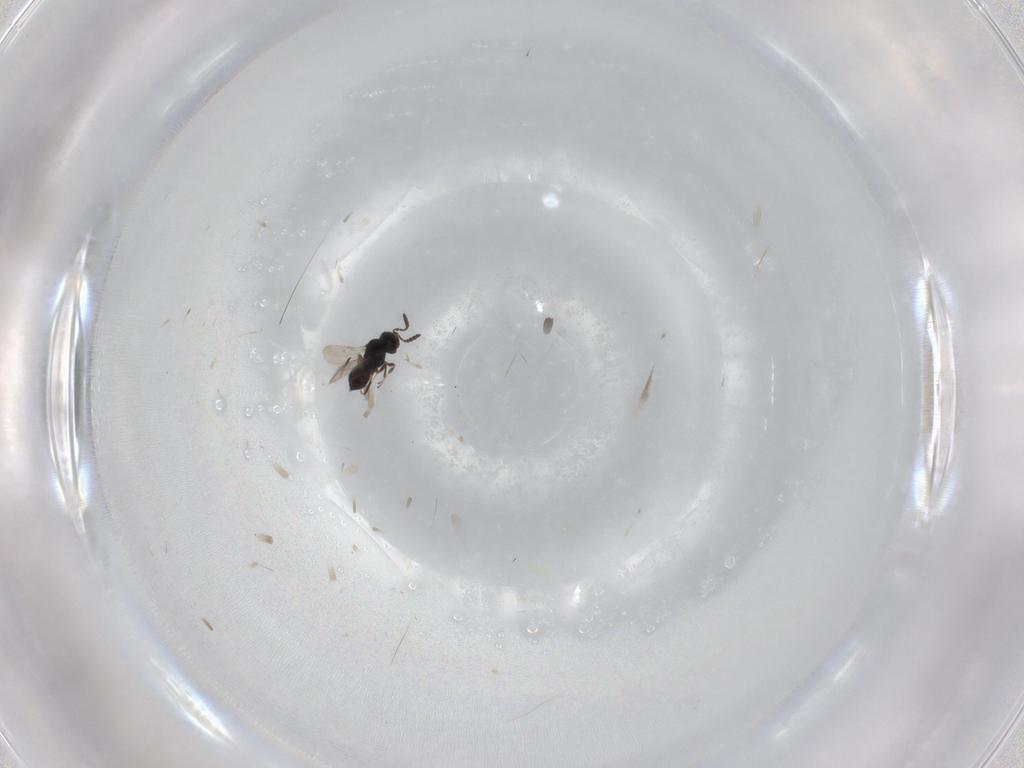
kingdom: Animalia
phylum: Arthropoda
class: Insecta
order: Hymenoptera
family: Scelionidae
